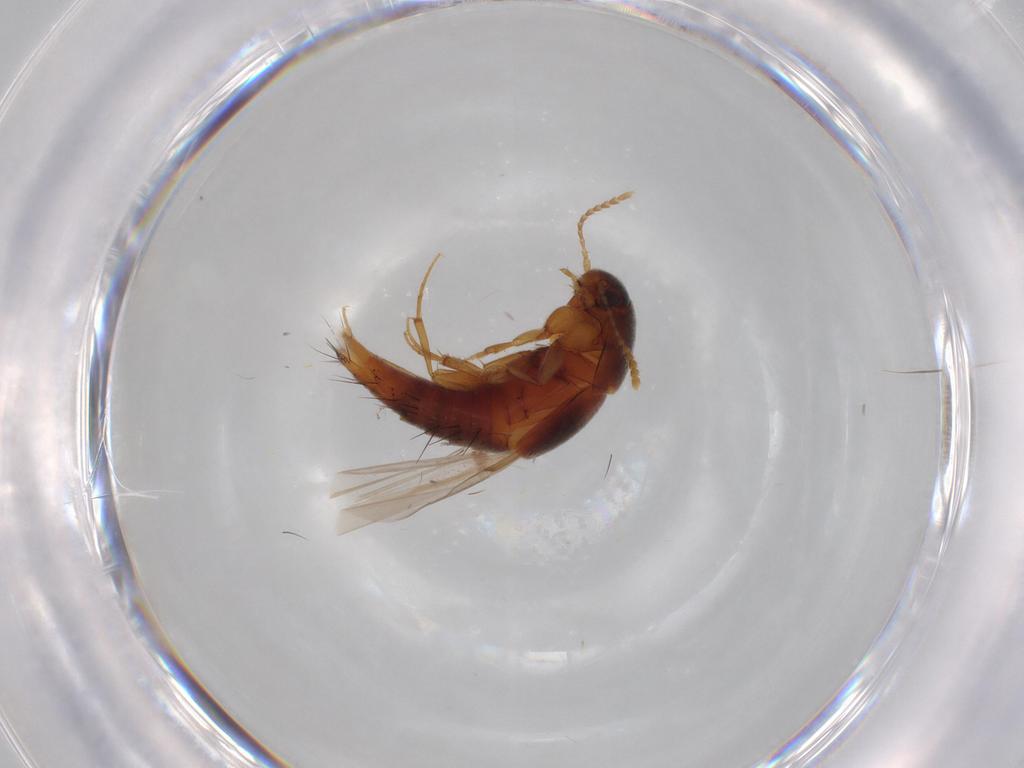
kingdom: Animalia
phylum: Arthropoda
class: Insecta
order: Coleoptera
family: Staphylinidae
